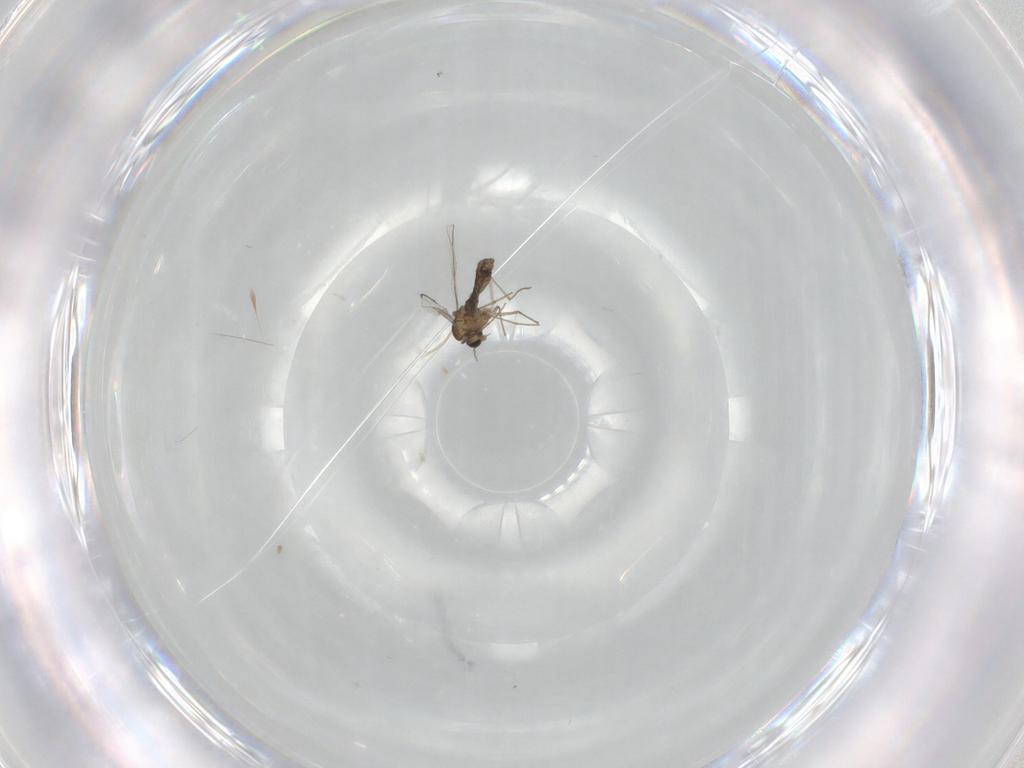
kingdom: Animalia
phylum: Arthropoda
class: Insecta
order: Diptera
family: Chironomidae
